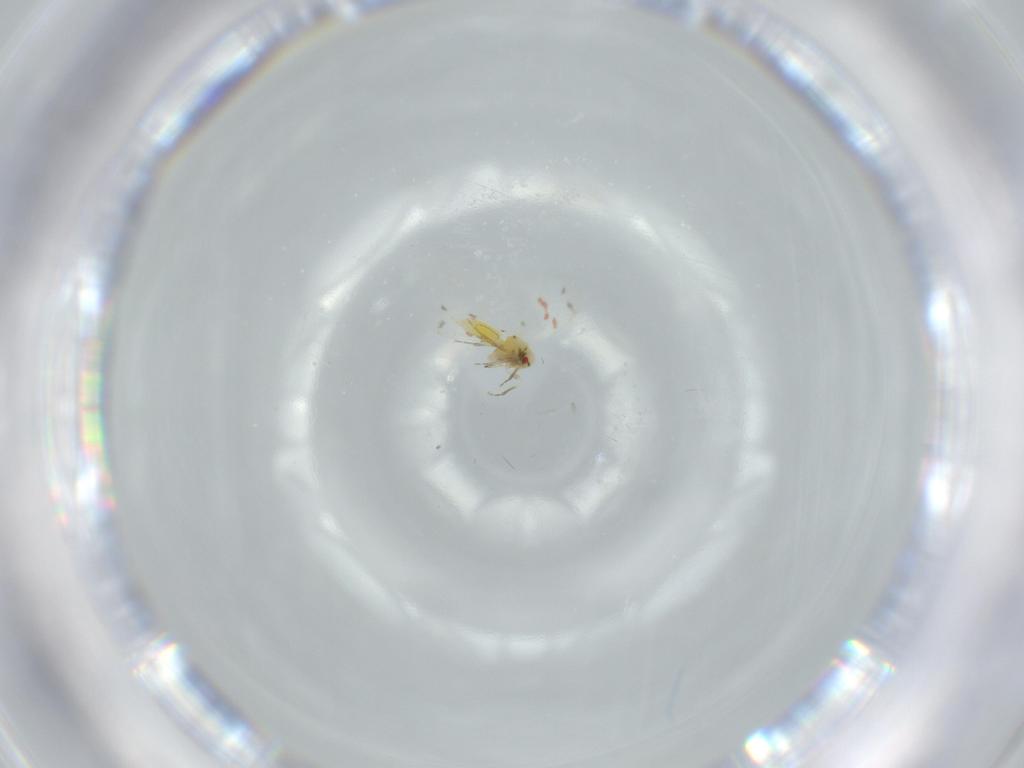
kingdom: Animalia
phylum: Arthropoda
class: Insecta
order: Hemiptera
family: Aleyrodidae
